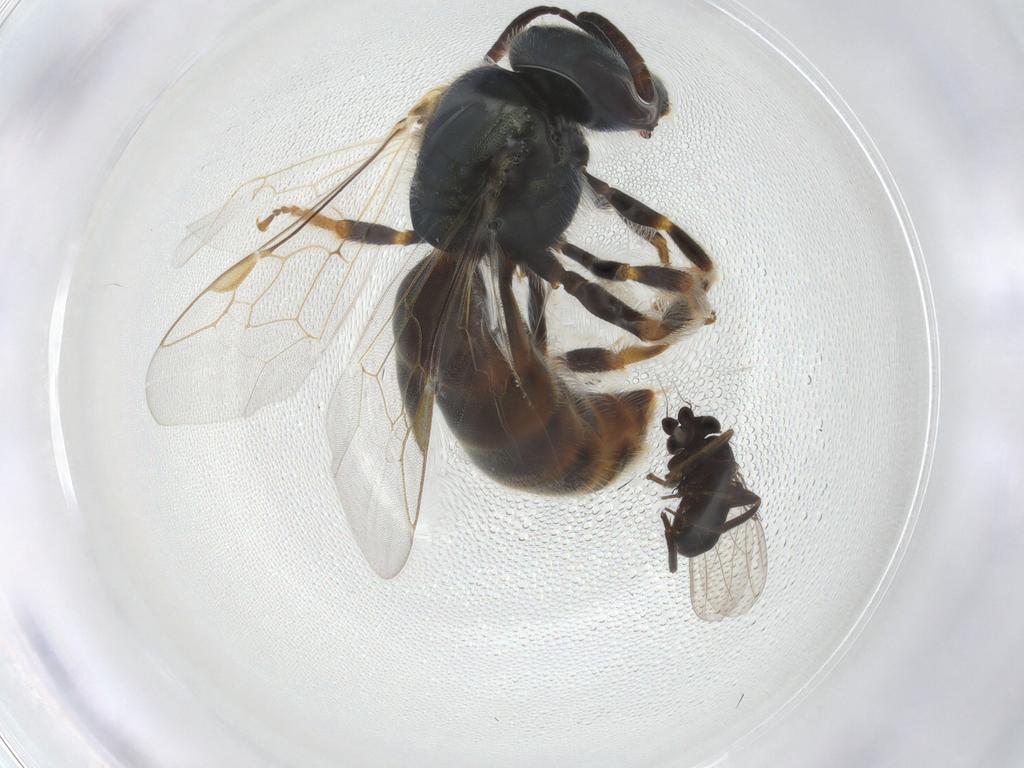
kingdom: Animalia
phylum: Arthropoda
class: Insecta
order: Hymenoptera
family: Halictidae
